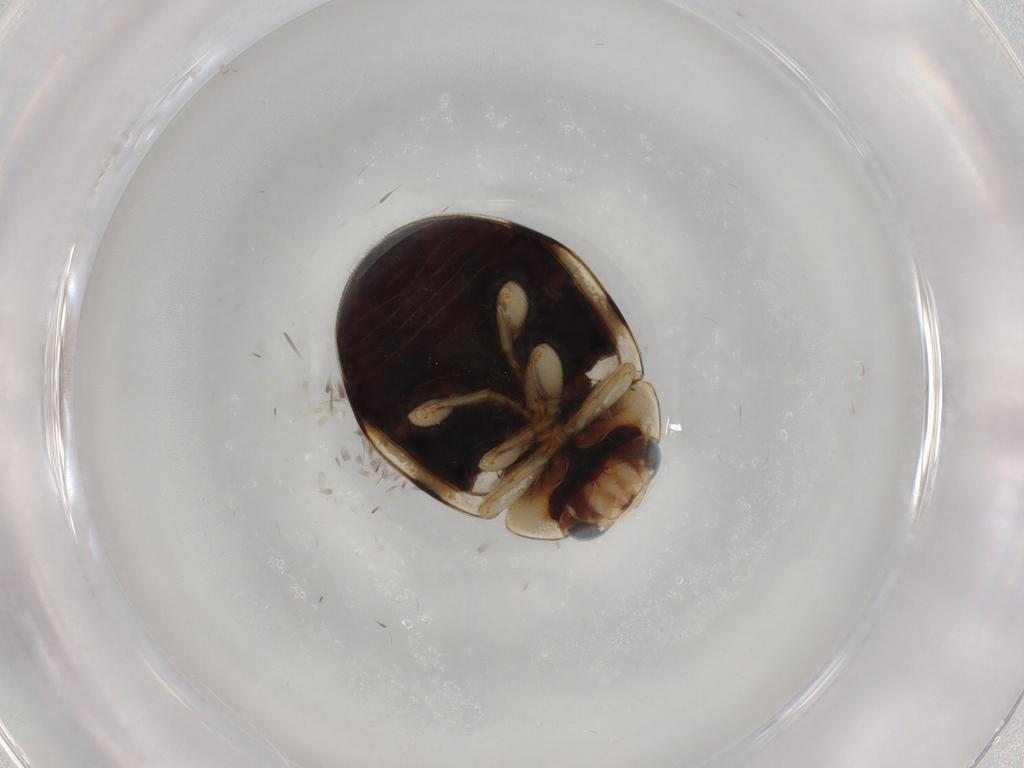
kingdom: Animalia
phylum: Arthropoda
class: Insecta
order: Coleoptera
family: Coccinellidae
